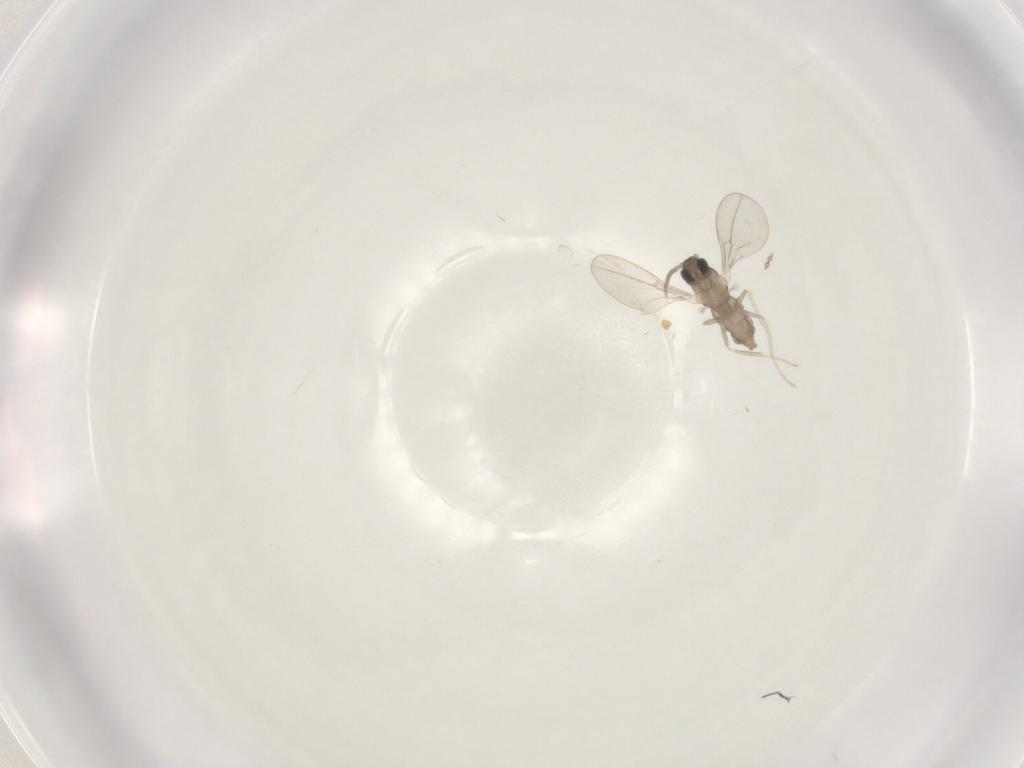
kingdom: Animalia
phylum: Arthropoda
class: Insecta
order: Diptera
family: Cecidomyiidae
